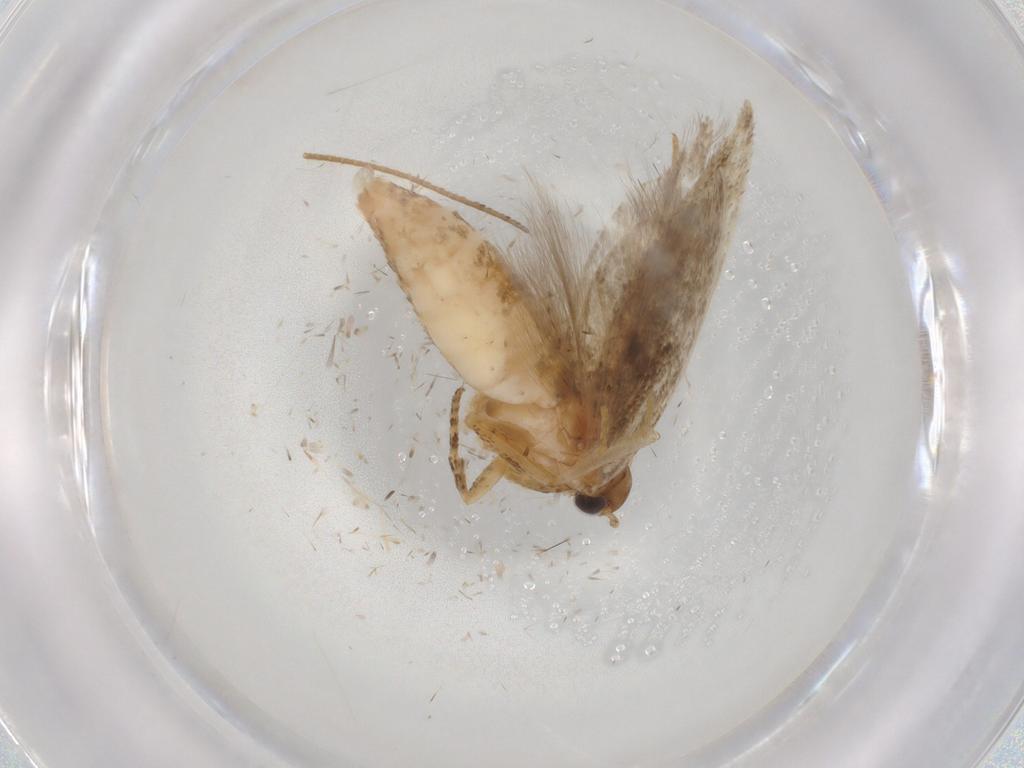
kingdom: Animalia
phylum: Arthropoda
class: Insecta
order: Lepidoptera
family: Gelechiidae
